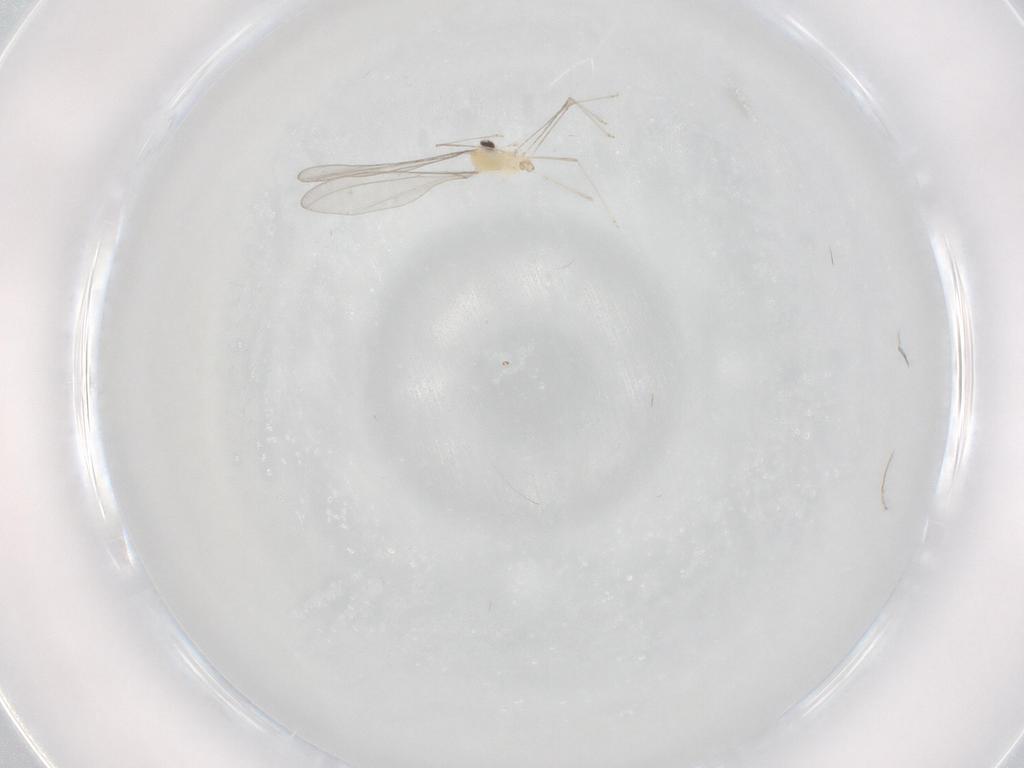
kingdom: Animalia
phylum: Arthropoda
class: Insecta
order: Diptera
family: Cecidomyiidae
